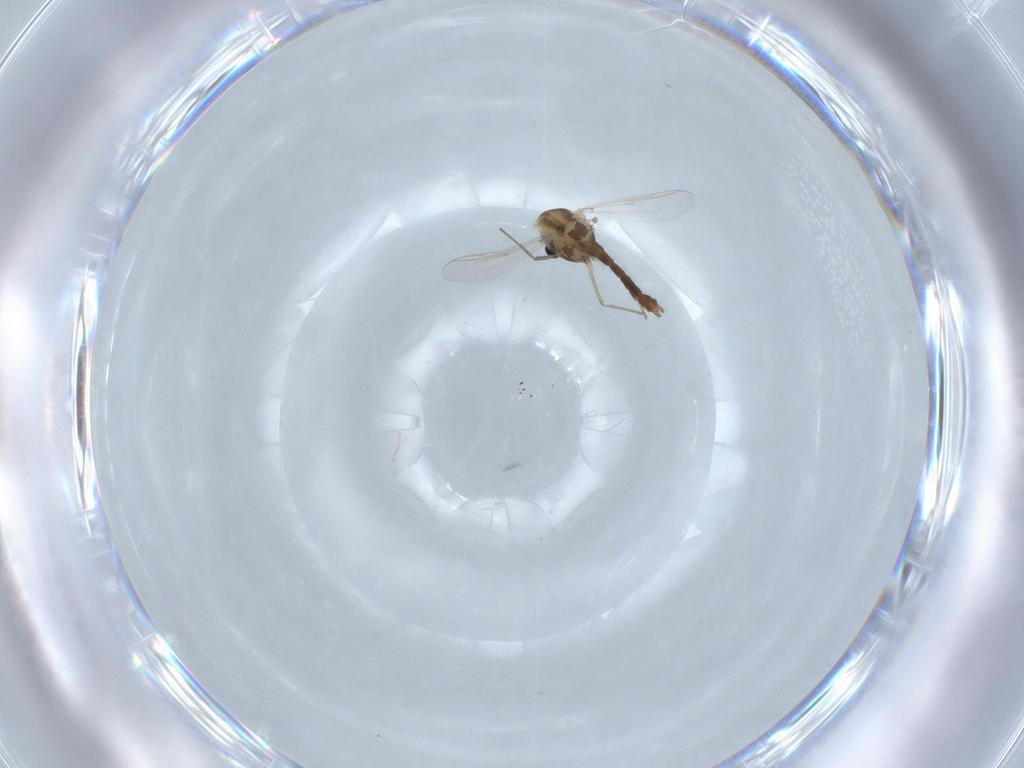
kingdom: Animalia
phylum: Arthropoda
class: Insecta
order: Diptera
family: Chironomidae
